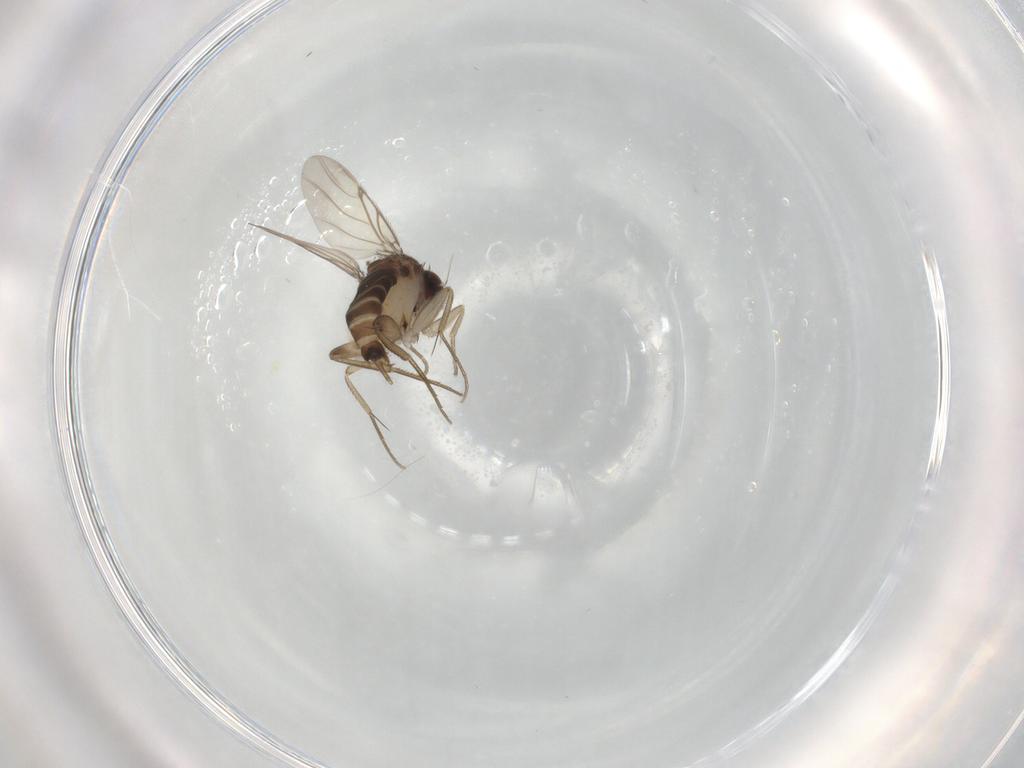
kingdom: Animalia
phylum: Arthropoda
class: Insecta
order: Diptera
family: Phoridae
